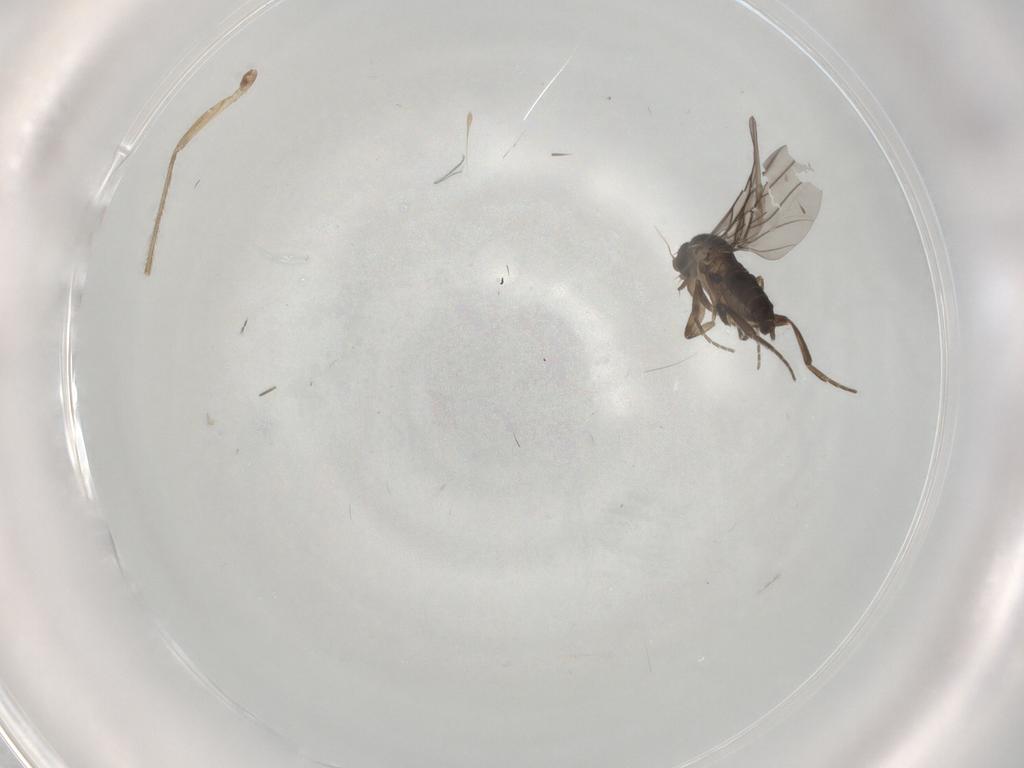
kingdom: Animalia
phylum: Arthropoda
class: Insecta
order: Diptera
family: Phoridae
